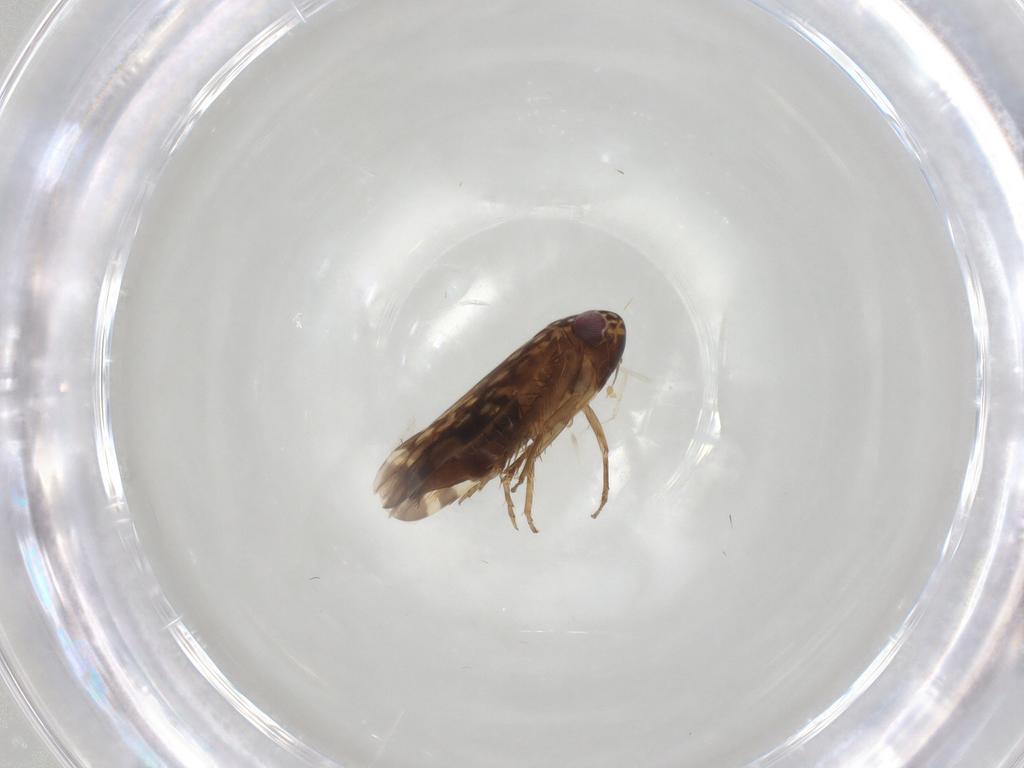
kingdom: Animalia
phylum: Arthropoda
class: Insecta
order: Hemiptera
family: Cicadellidae
